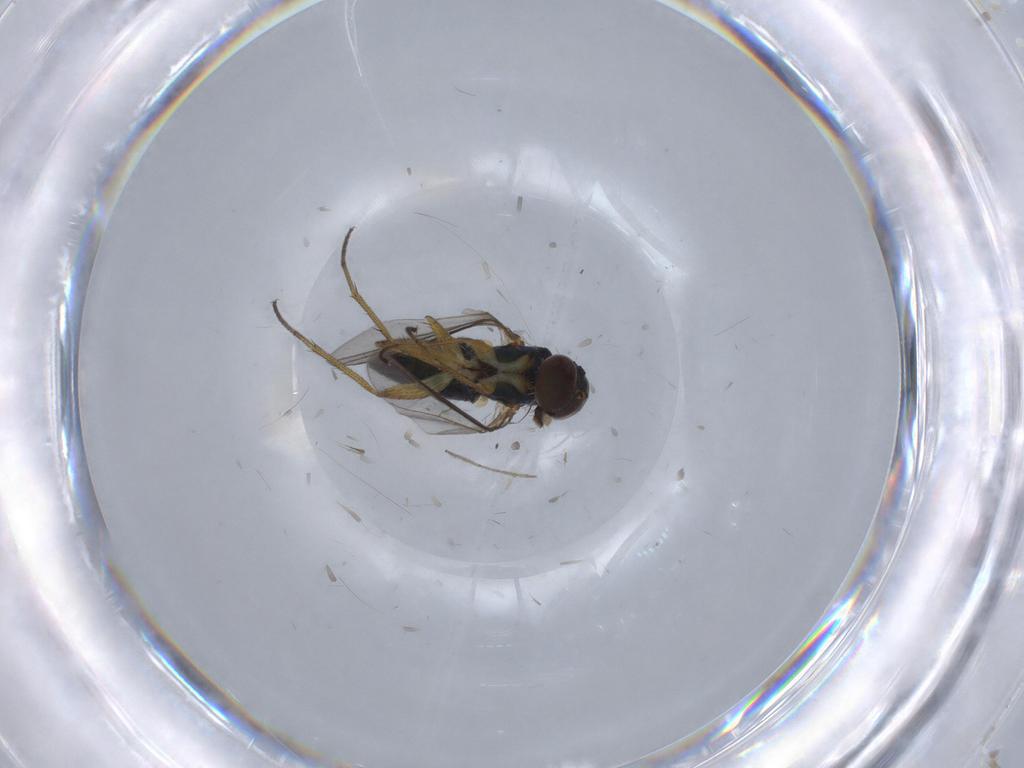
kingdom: Animalia
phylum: Arthropoda
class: Insecta
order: Diptera
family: Dolichopodidae
